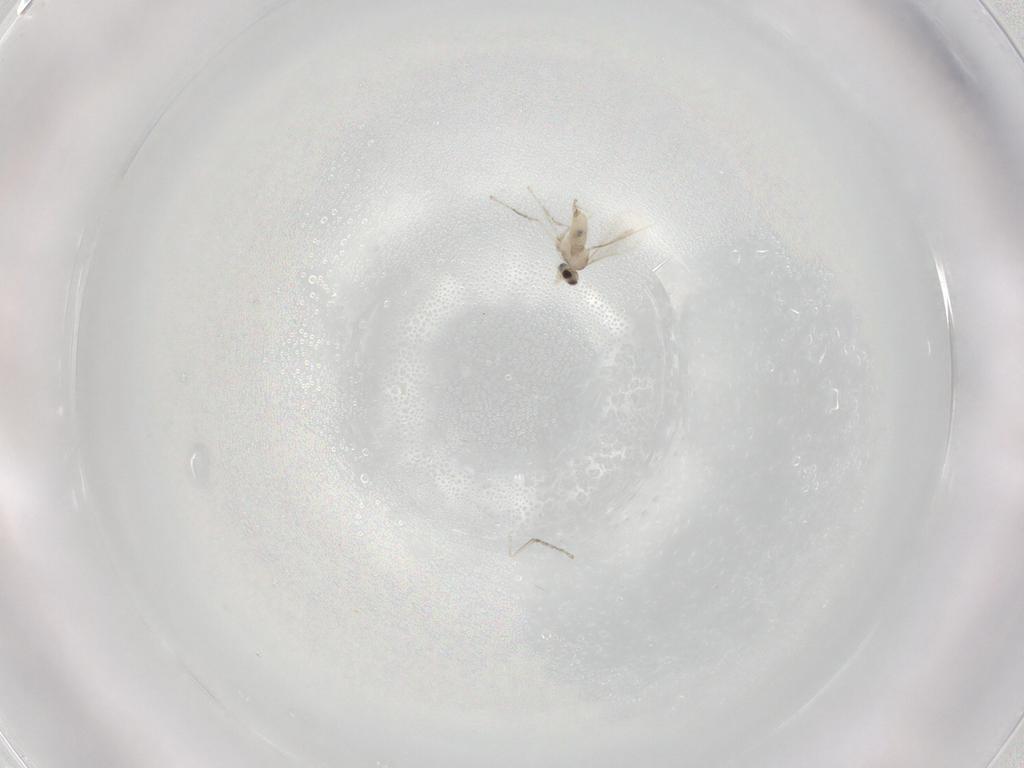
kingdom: Animalia
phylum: Arthropoda
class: Insecta
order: Diptera
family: Cecidomyiidae
